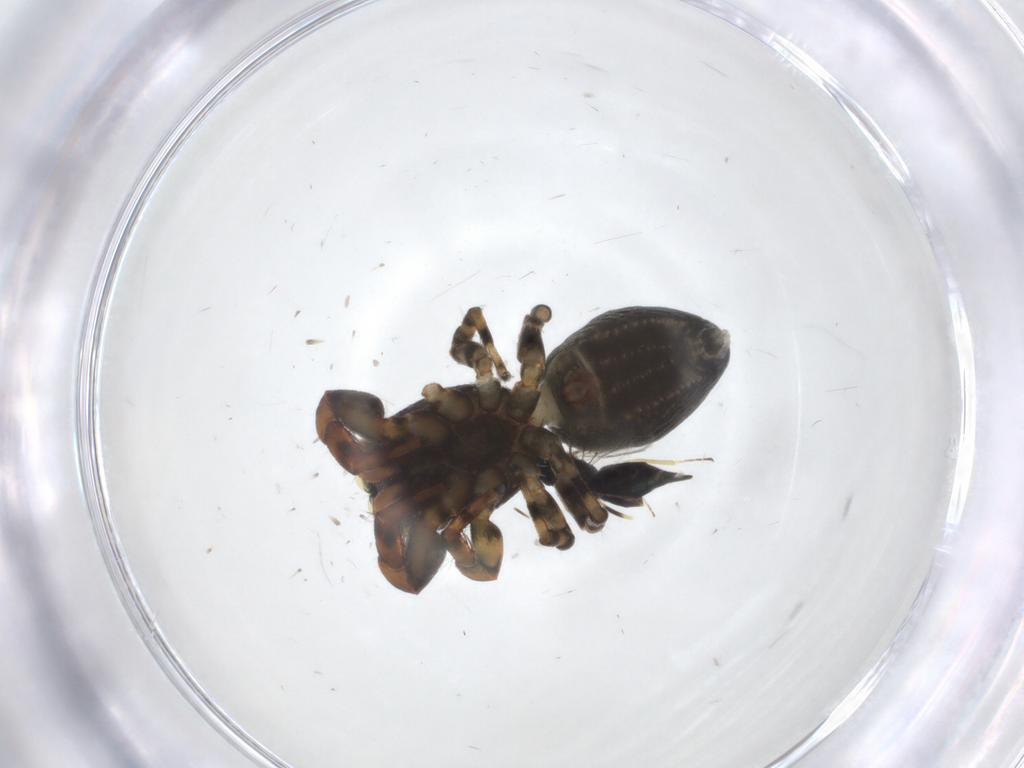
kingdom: Animalia
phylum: Arthropoda
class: Insecta
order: Hymenoptera
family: Eulophidae
